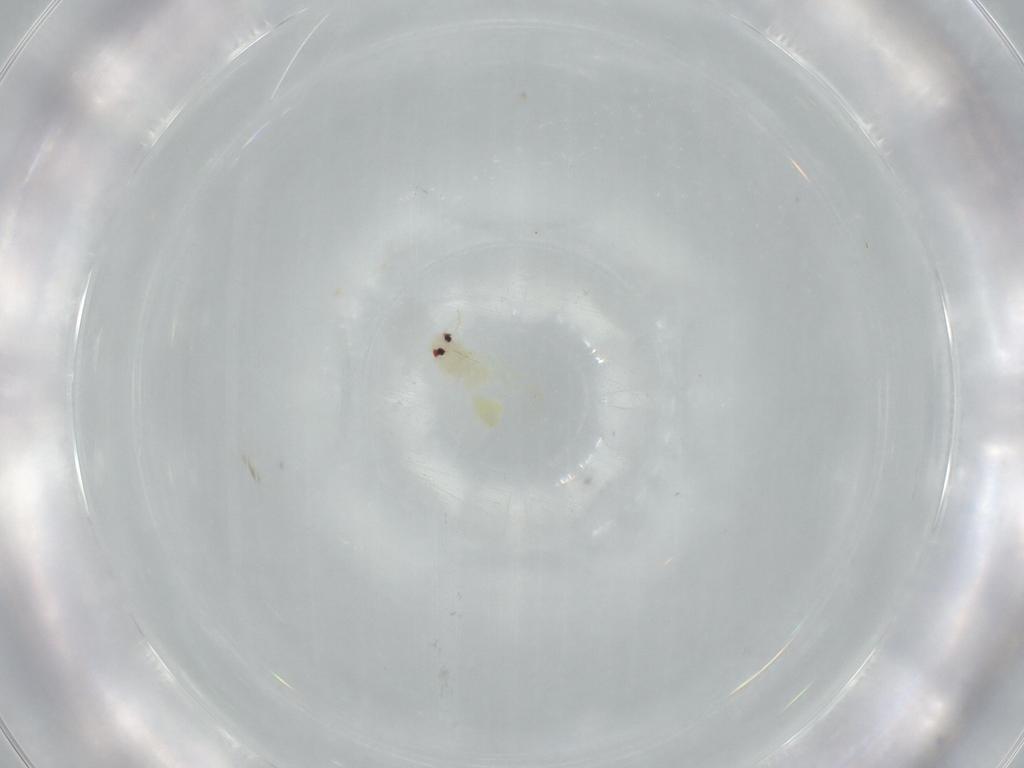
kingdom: Animalia
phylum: Arthropoda
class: Insecta
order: Hemiptera
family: Aleyrodidae
